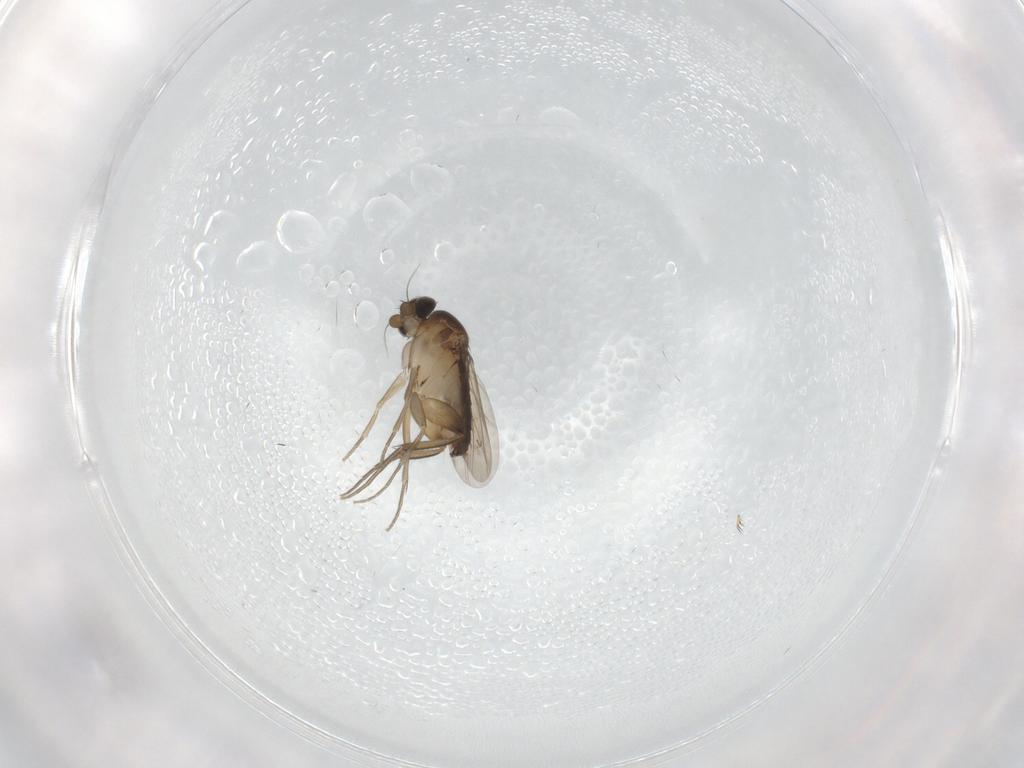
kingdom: Animalia
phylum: Arthropoda
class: Insecta
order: Diptera
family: Phoridae
